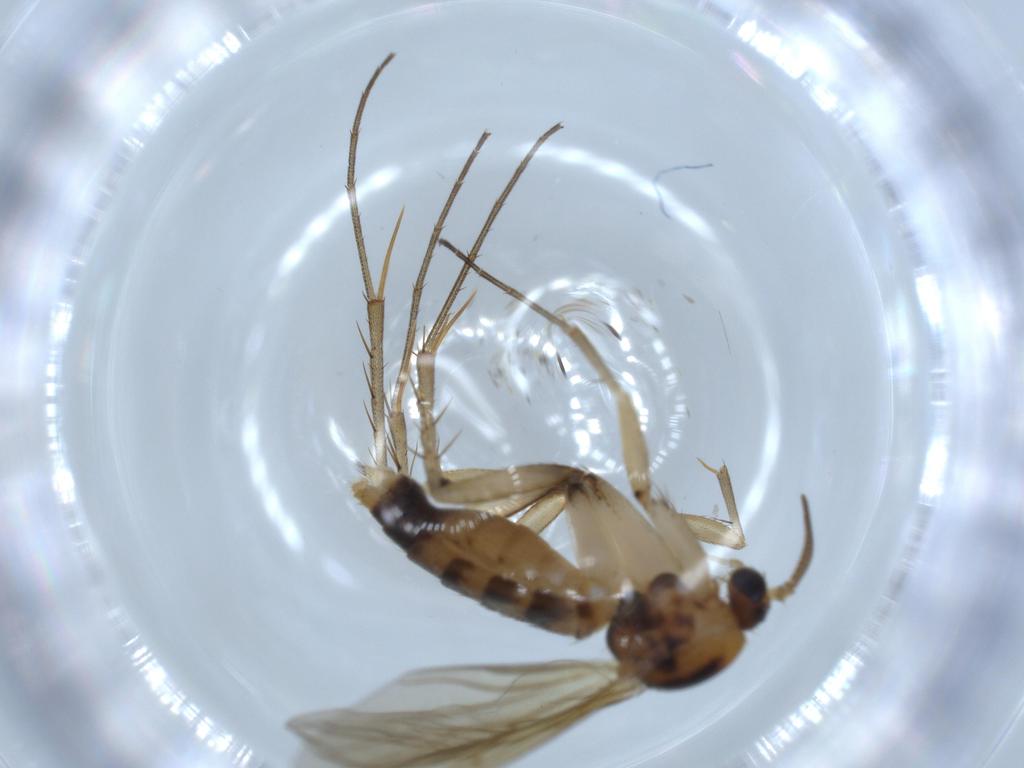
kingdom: Animalia
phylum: Arthropoda
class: Insecta
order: Diptera
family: Mycetophilidae
